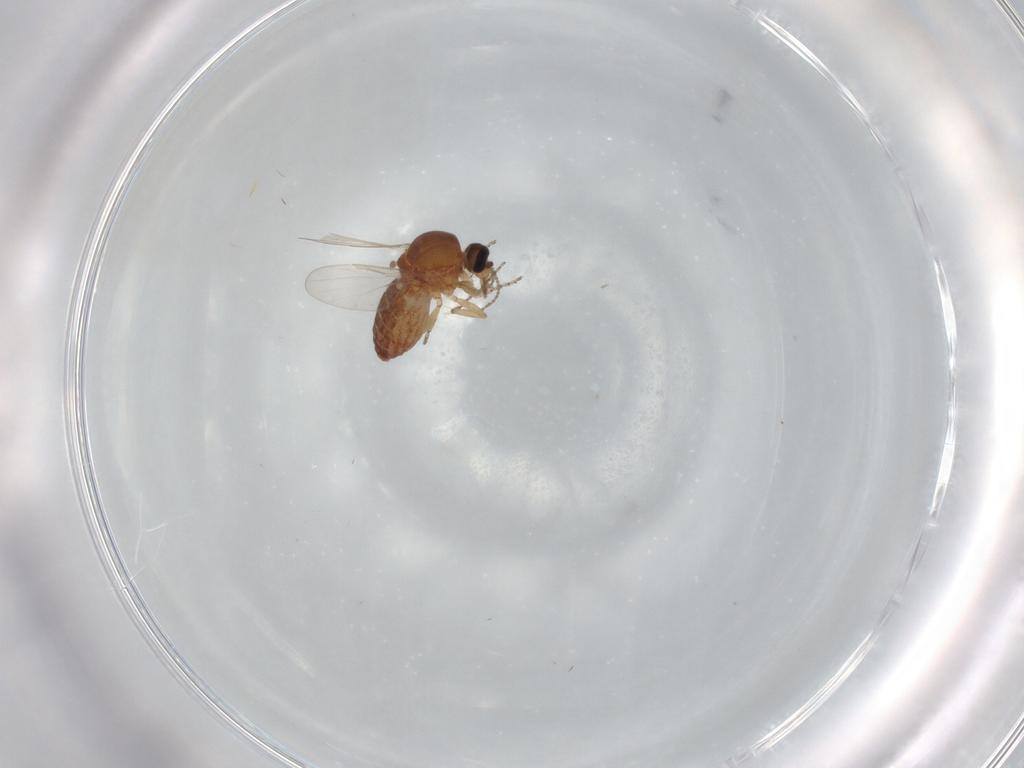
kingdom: Animalia
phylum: Arthropoda
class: Insecta
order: Diptera
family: Ceratopogonidae
